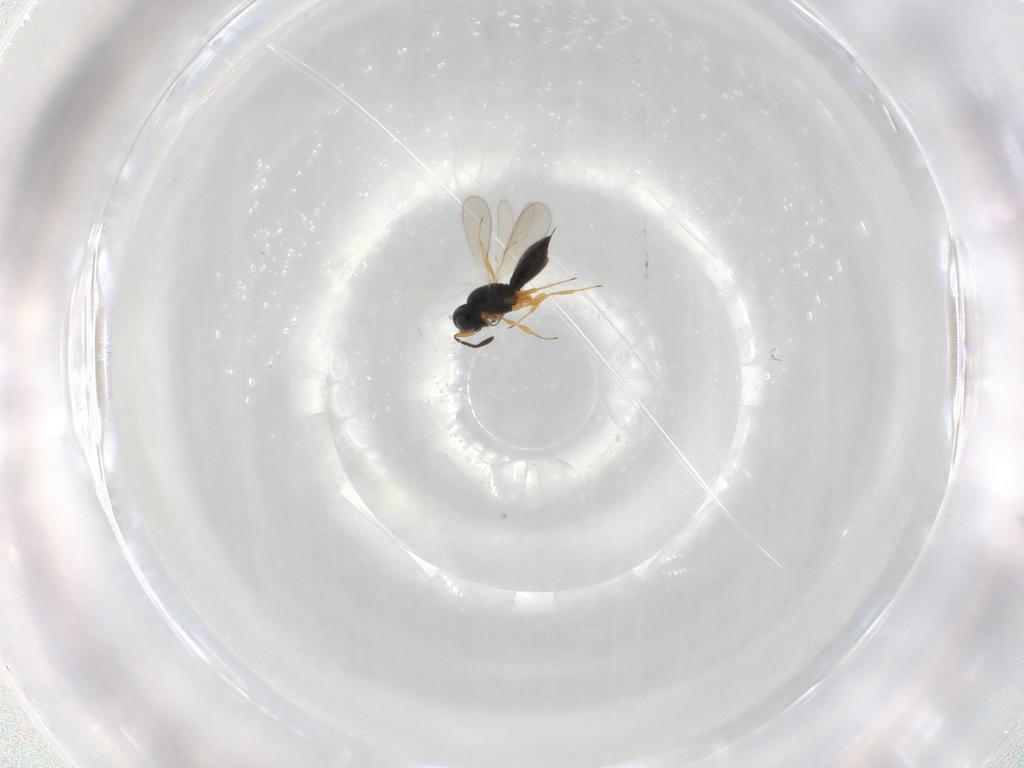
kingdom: Animalia
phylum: Arthropoda
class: Insecta
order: Hymenoptera
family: Scelionidae
